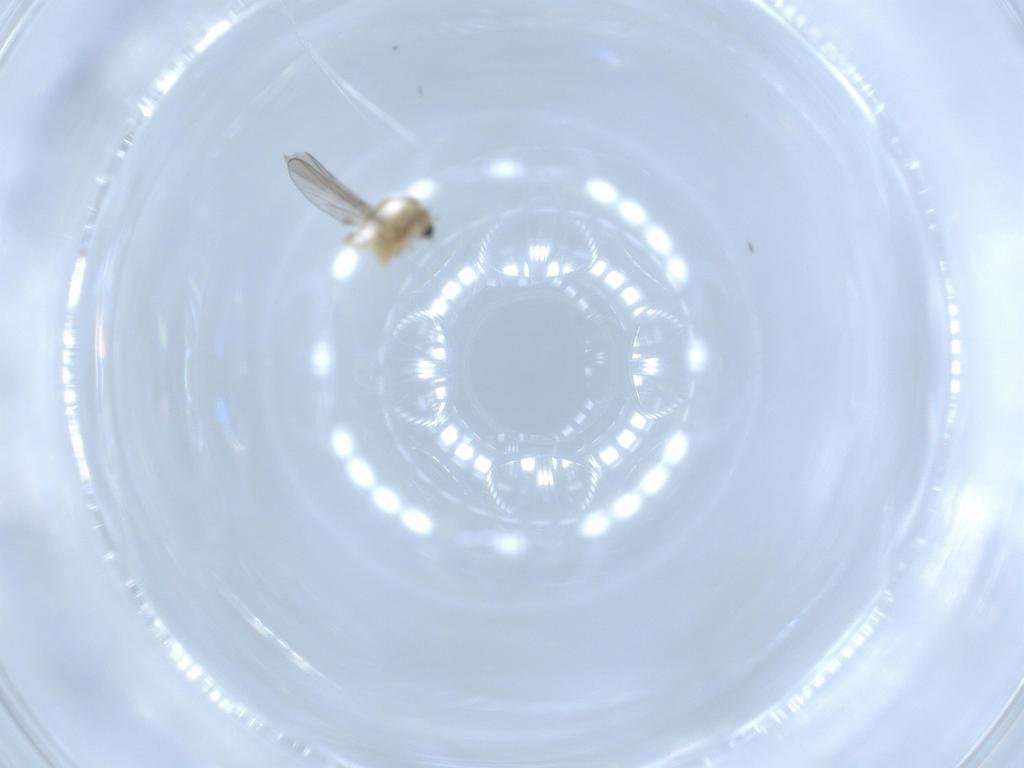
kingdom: Animalia
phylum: Arthropoda
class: Insecta
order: Diptera
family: Chironomidae
